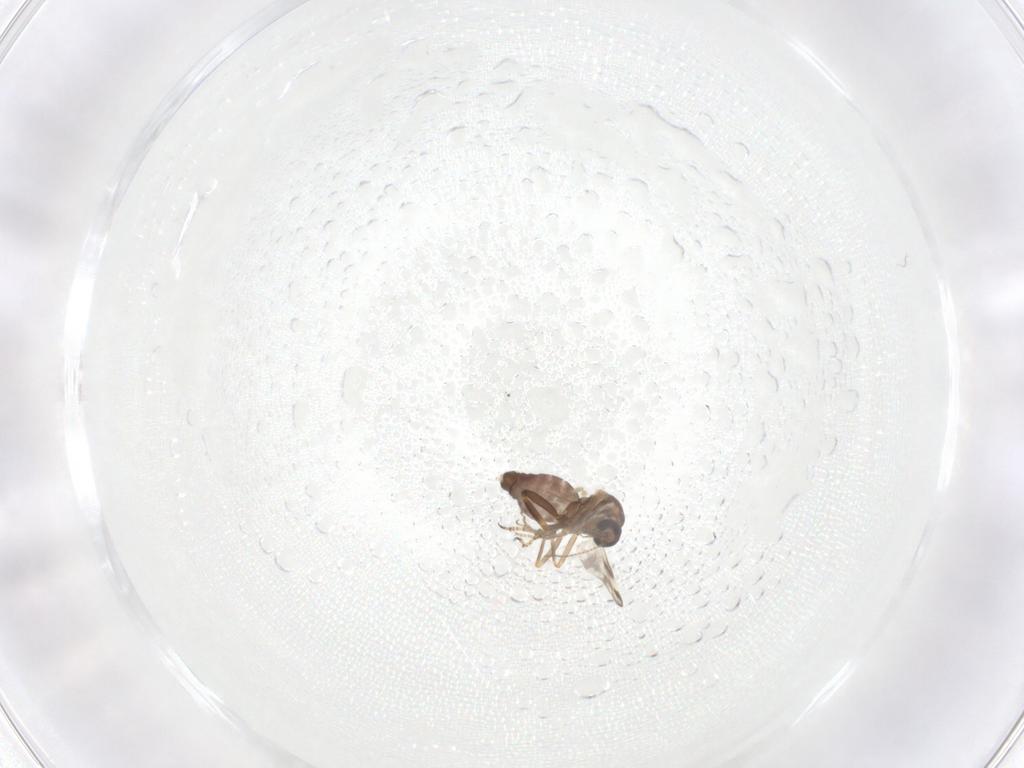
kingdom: Animalia
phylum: Arthropoda
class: Insecta
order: Diptera
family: Ceratopogonidae
